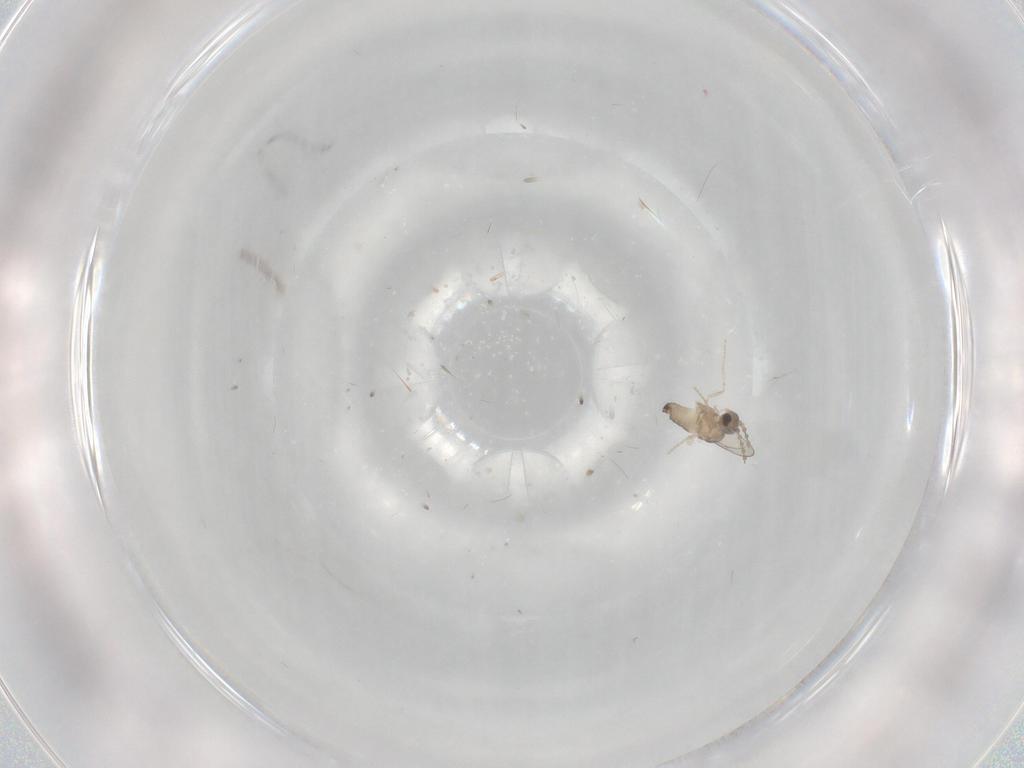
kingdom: Animalia
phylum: Arthropoda
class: Insecta
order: Diptera
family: Cecidomyiidae
